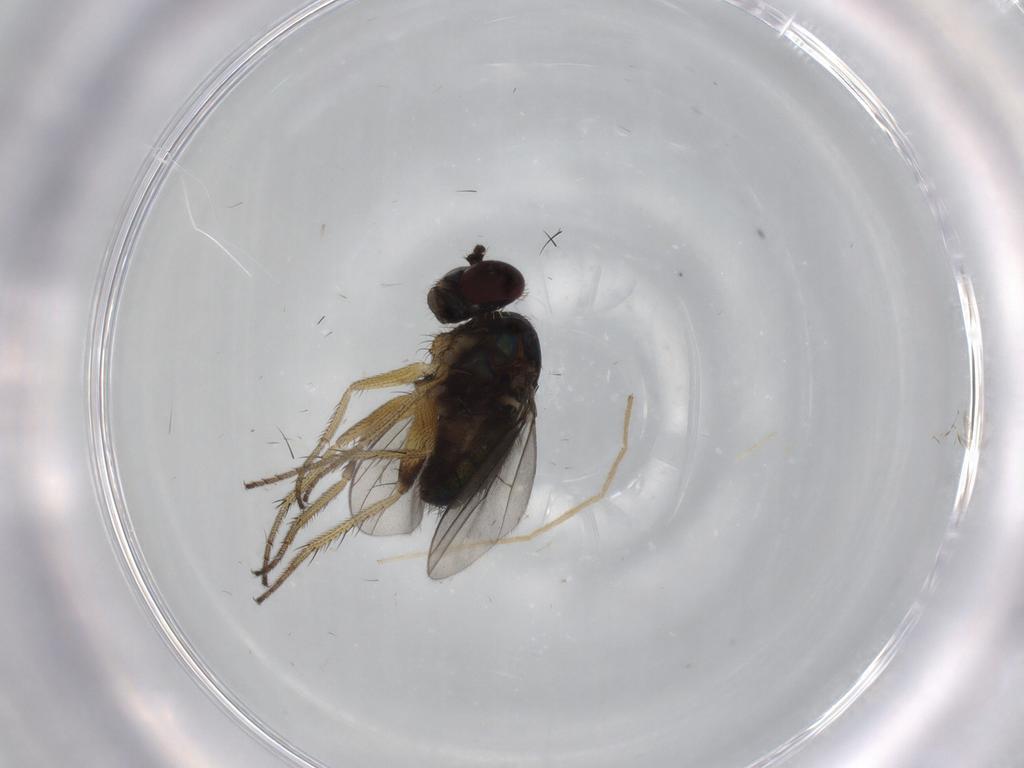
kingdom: Animalia
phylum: Arthropoda
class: Insecta
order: Diptera
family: Dolichopodidae
